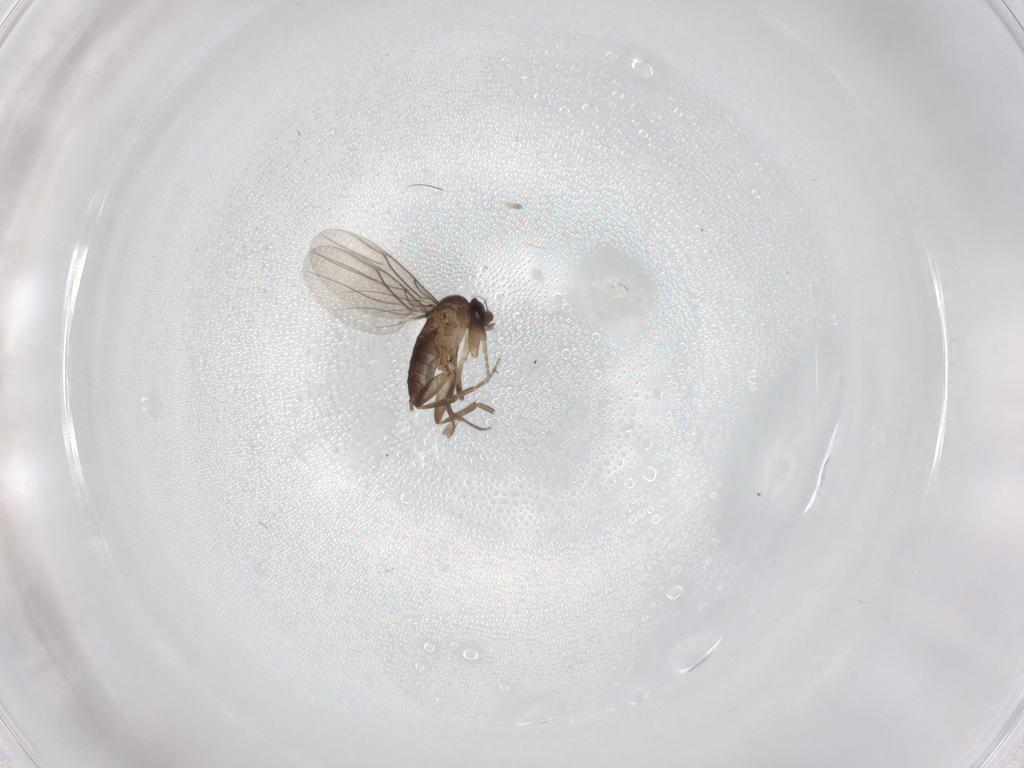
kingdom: Animalia
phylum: Arthropoda
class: Insecta
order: Diptera
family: Phoridae
